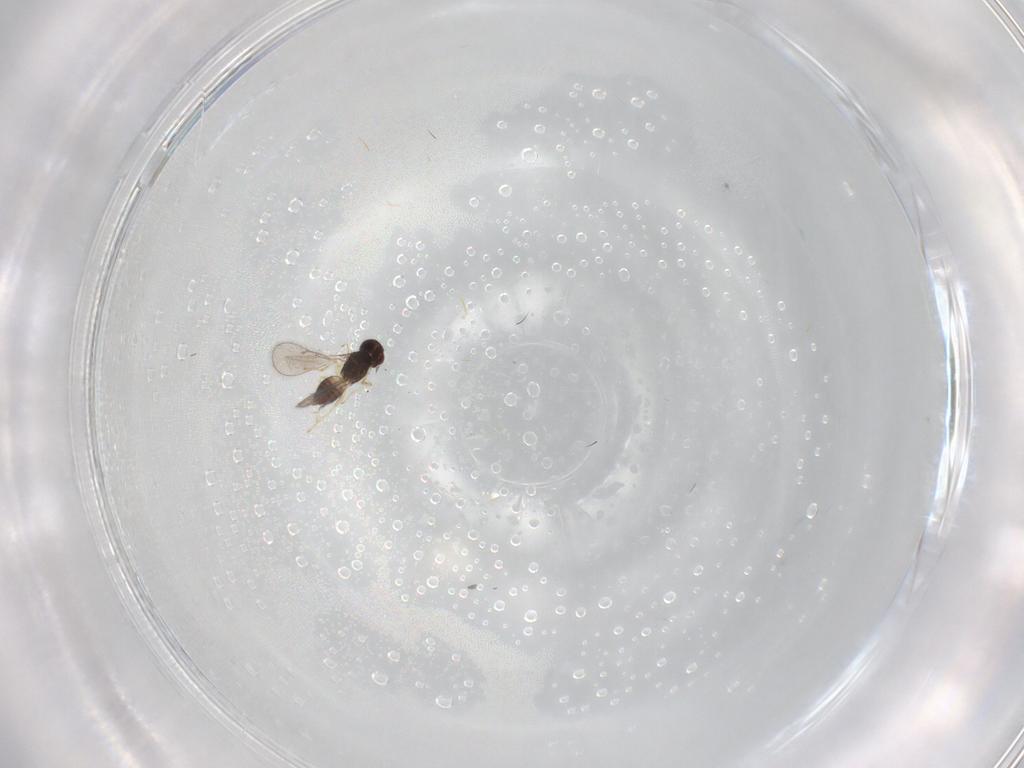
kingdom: Animalia
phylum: Arthropoda
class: Insecta
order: Hymenoptera
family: Eulophidae
